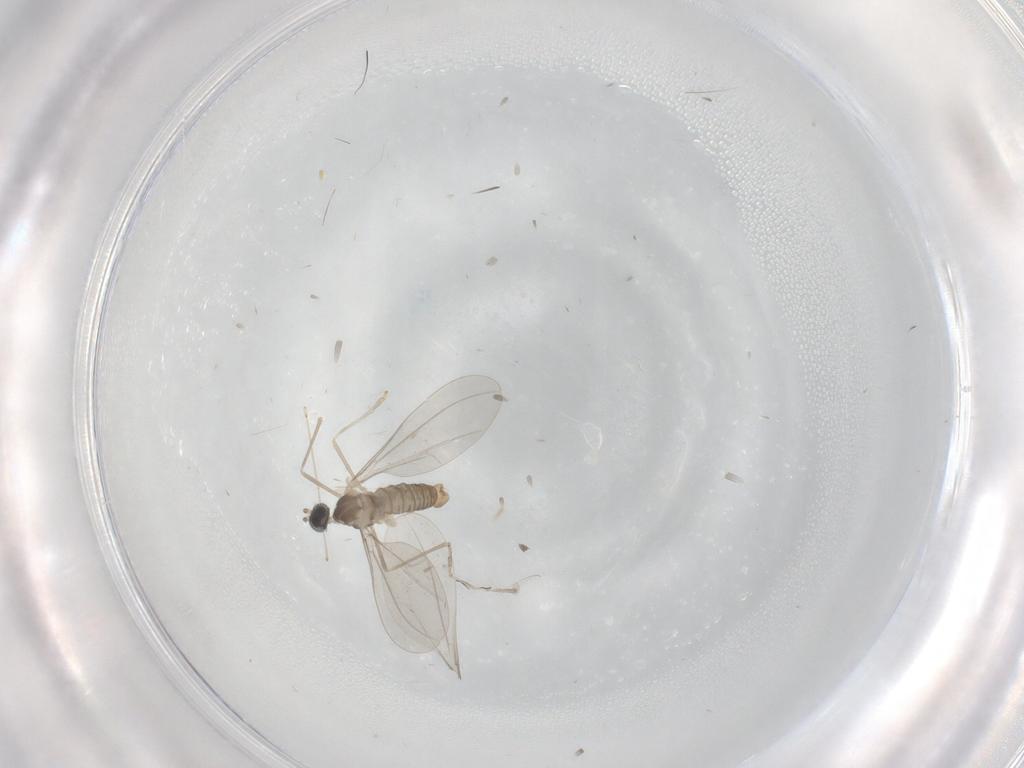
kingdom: Animalia
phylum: Arthropoda
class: Insecta
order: Diptera
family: Cecidomyiidae
